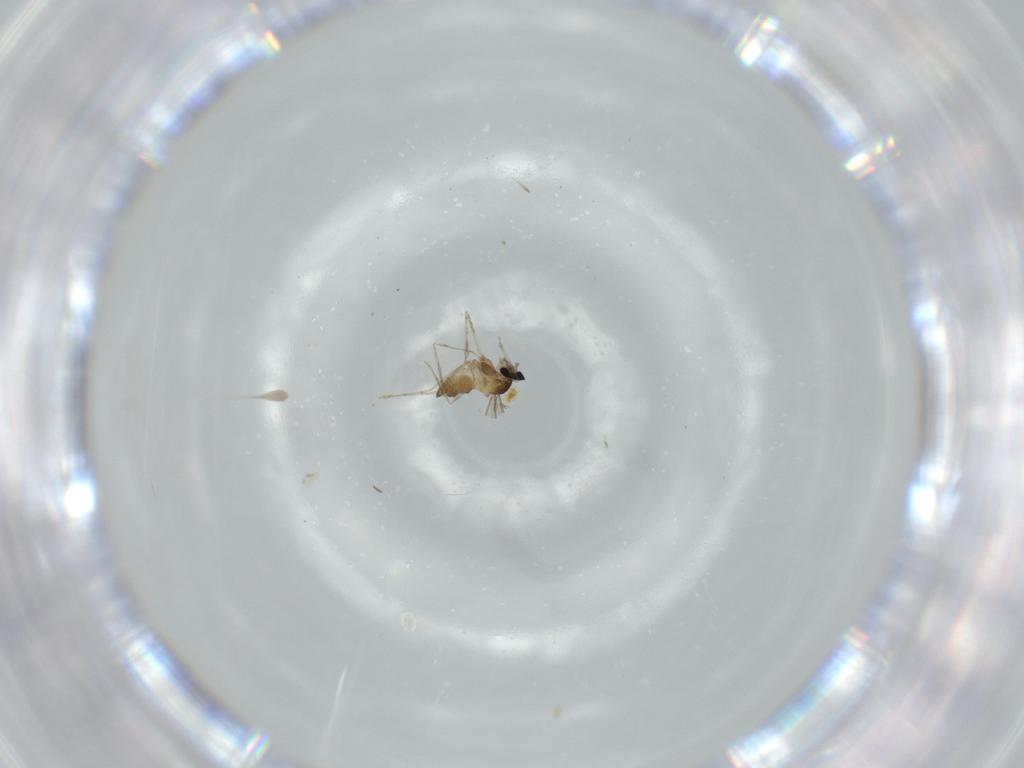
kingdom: Animalia
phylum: Arthropoda
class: Insecta
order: Diptera
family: Cecidomyiidae
